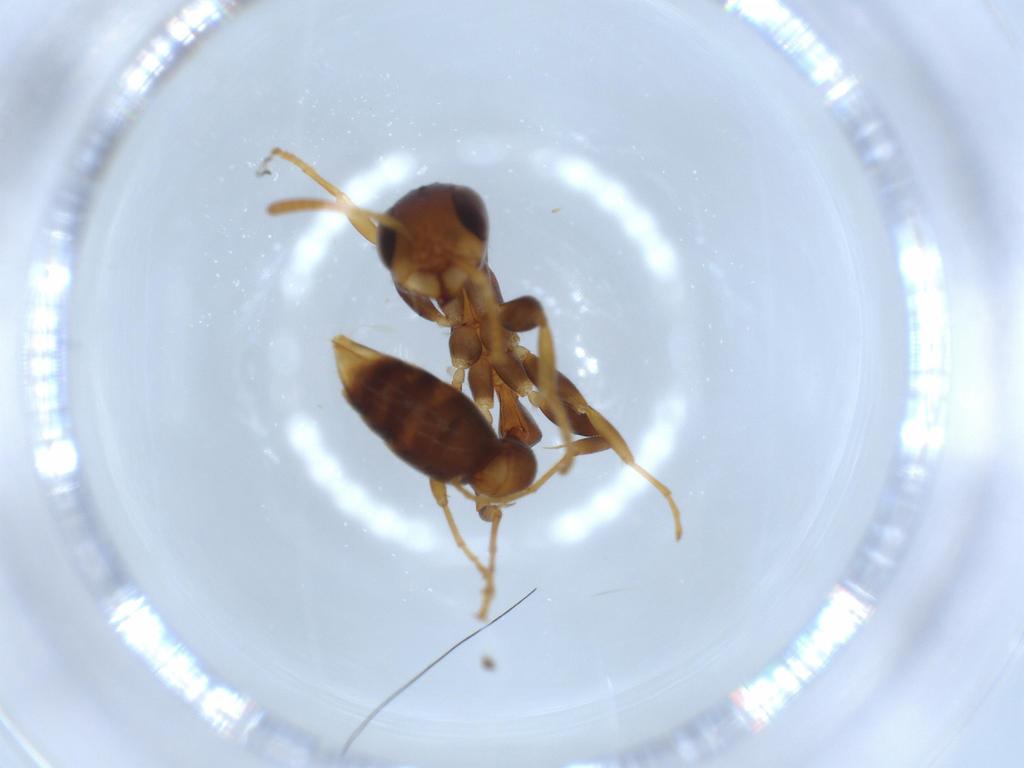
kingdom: Animalia
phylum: Arthropoda
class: Insecta
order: Hymenoptera
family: Formicidae
